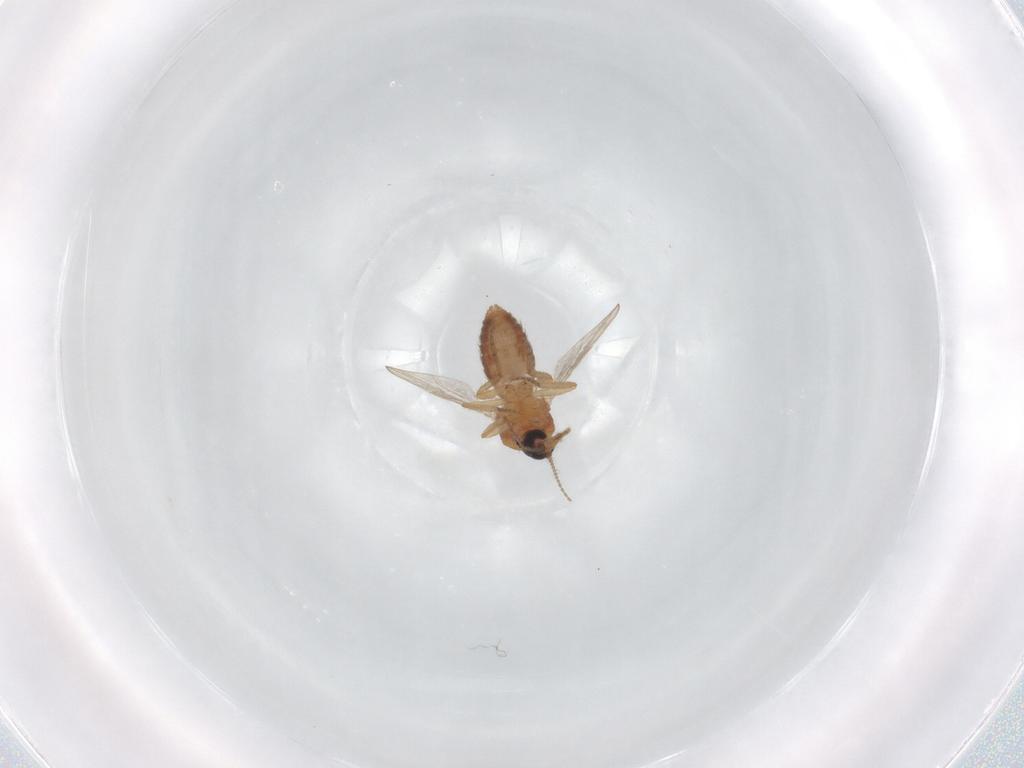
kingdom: Animalia
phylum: Arthropoda
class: Insecta
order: Diptera
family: Ceratopogonidae
